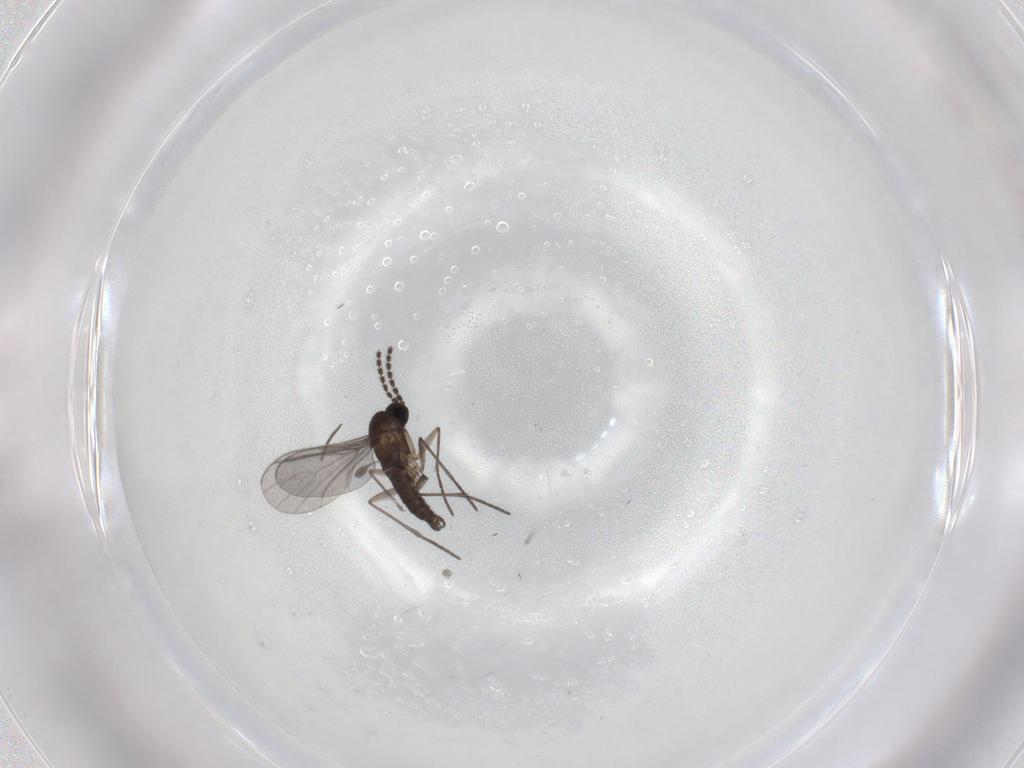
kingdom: Animalia
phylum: Arthropoda
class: Insecta
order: Diptera
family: Sciaridae
